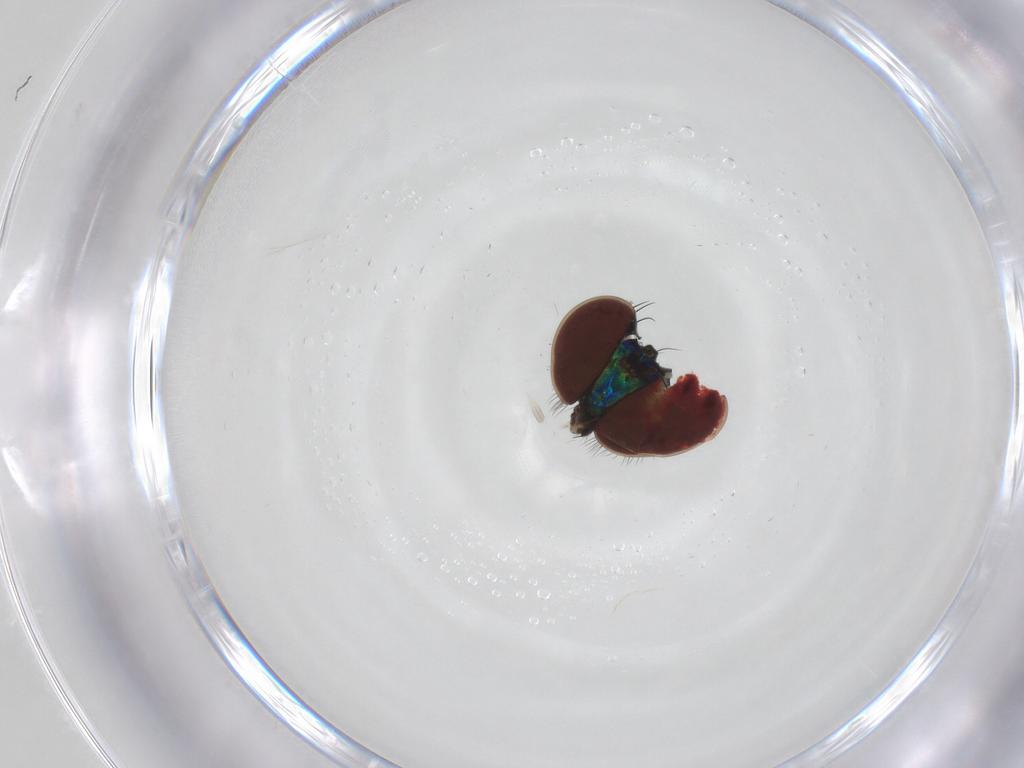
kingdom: Animalia
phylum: Arthropoda
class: Insecta
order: Diptera
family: Dolichopodidae
